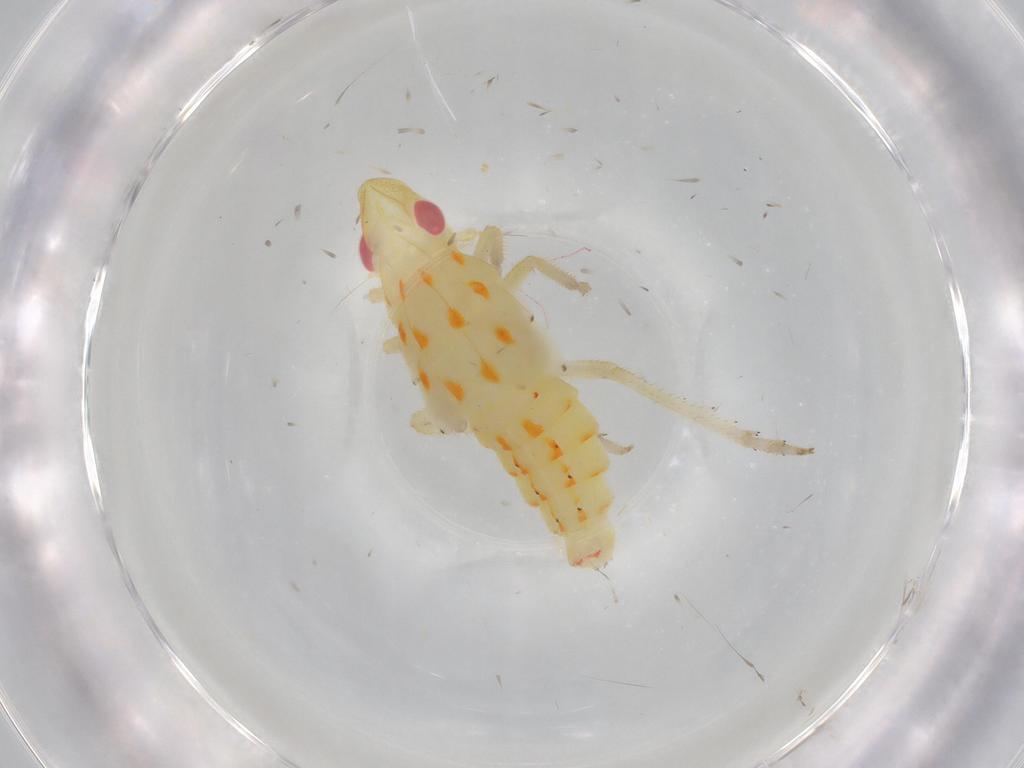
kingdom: Animalia
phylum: Arthropoda
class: Insecta
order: Hemiptera
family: Tropiduchidae
